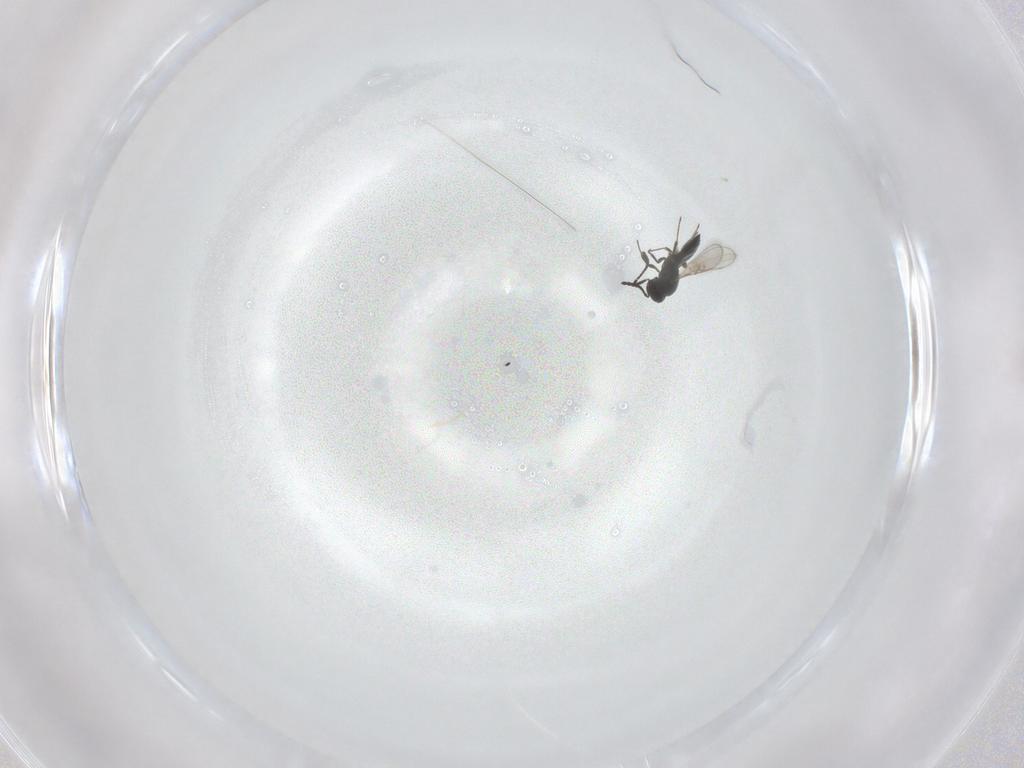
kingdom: Animalia
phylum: Arthropoda
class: Insecta
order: Hymenoptera
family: Scelionidae
